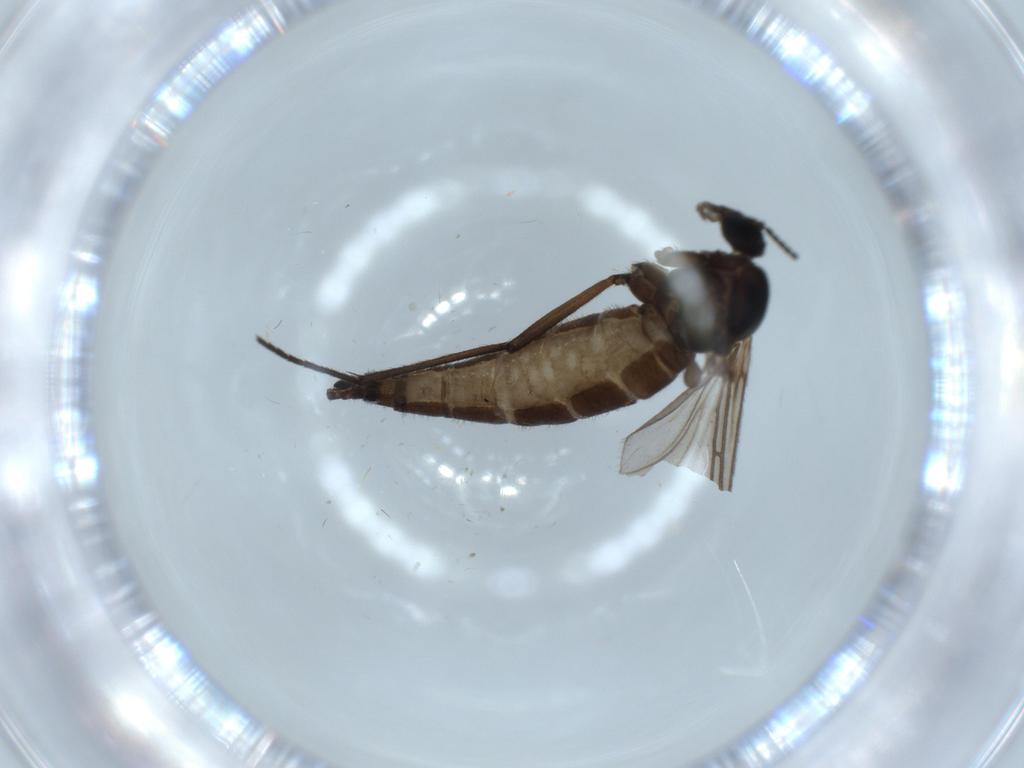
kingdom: Animalia
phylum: Arthropoda
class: Insecta
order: Diptera
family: Sciaridae
